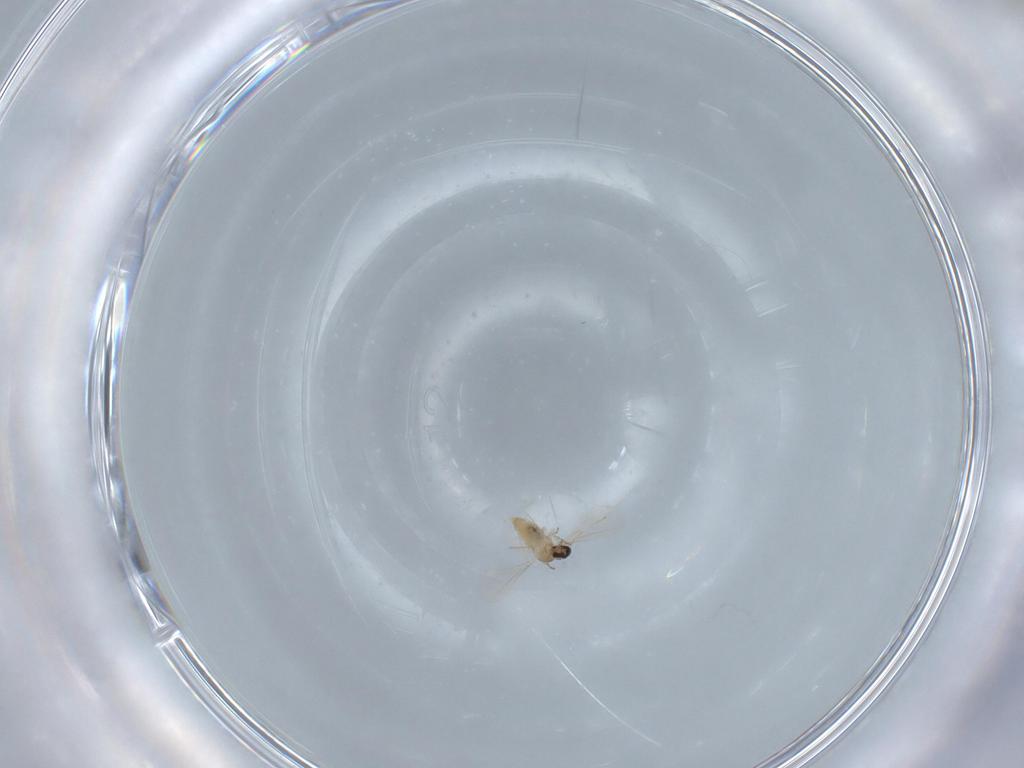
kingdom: Animalia
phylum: Arthropoda
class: Insecta
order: Diptera
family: Cecidomyiidae
